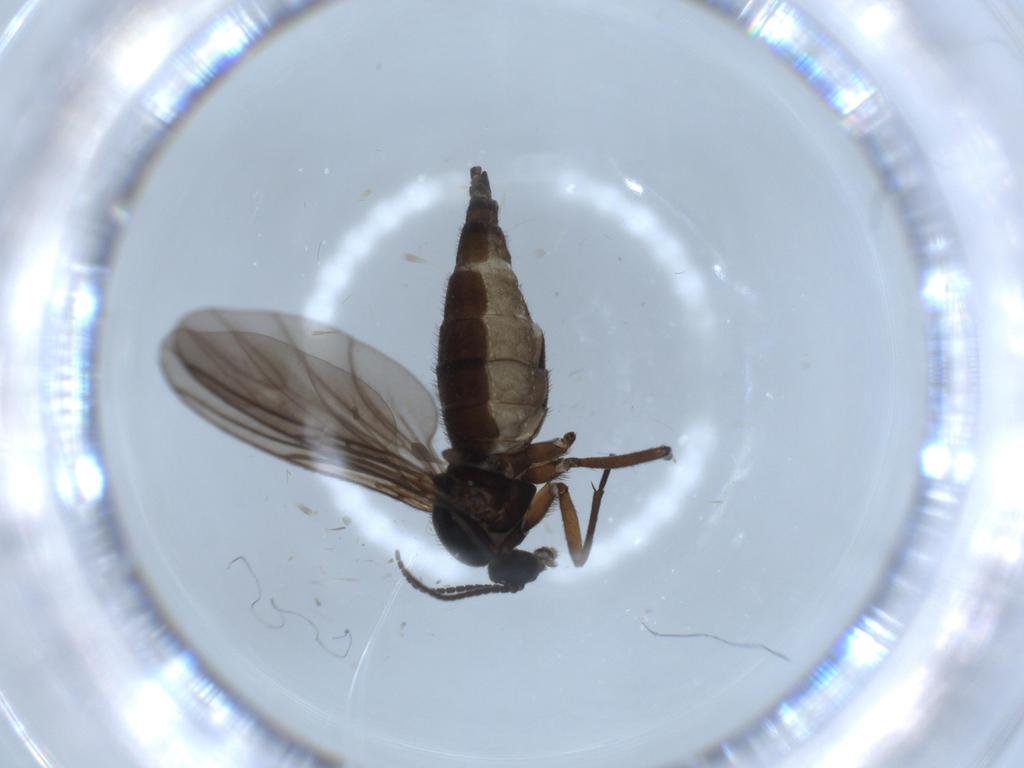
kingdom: Animalia
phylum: Arthropoda
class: Insecta
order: Diptera
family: Sciaridae
